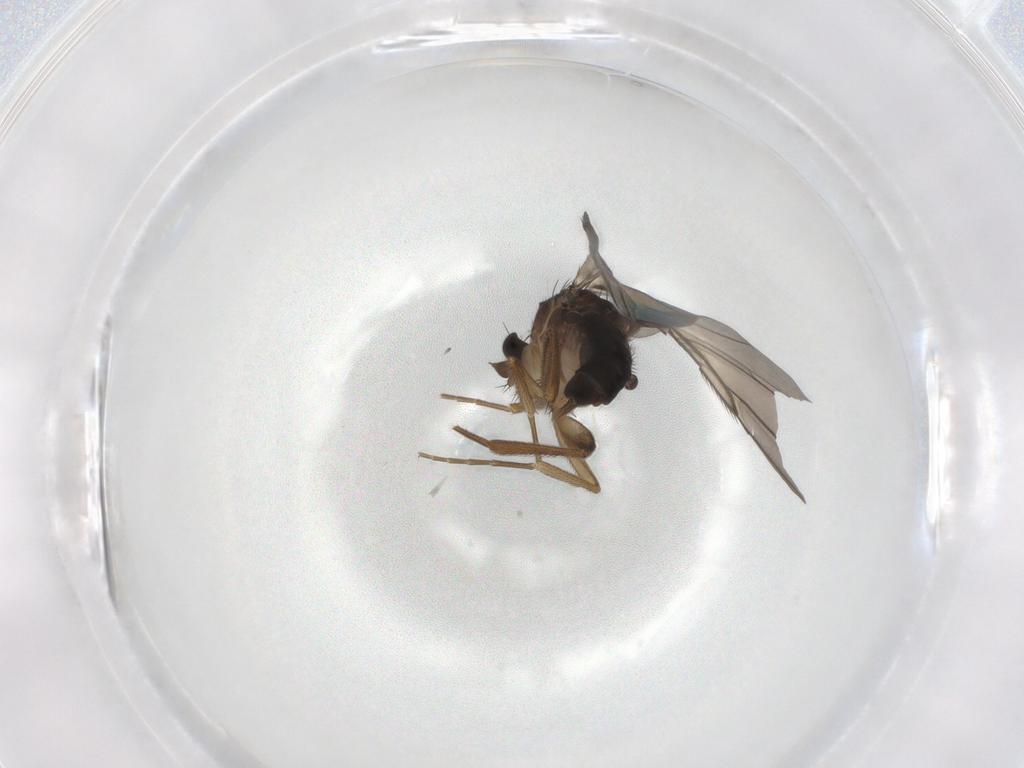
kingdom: Animalia
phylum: Arthropoda
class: Insecta
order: Diptera
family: Phoridae
